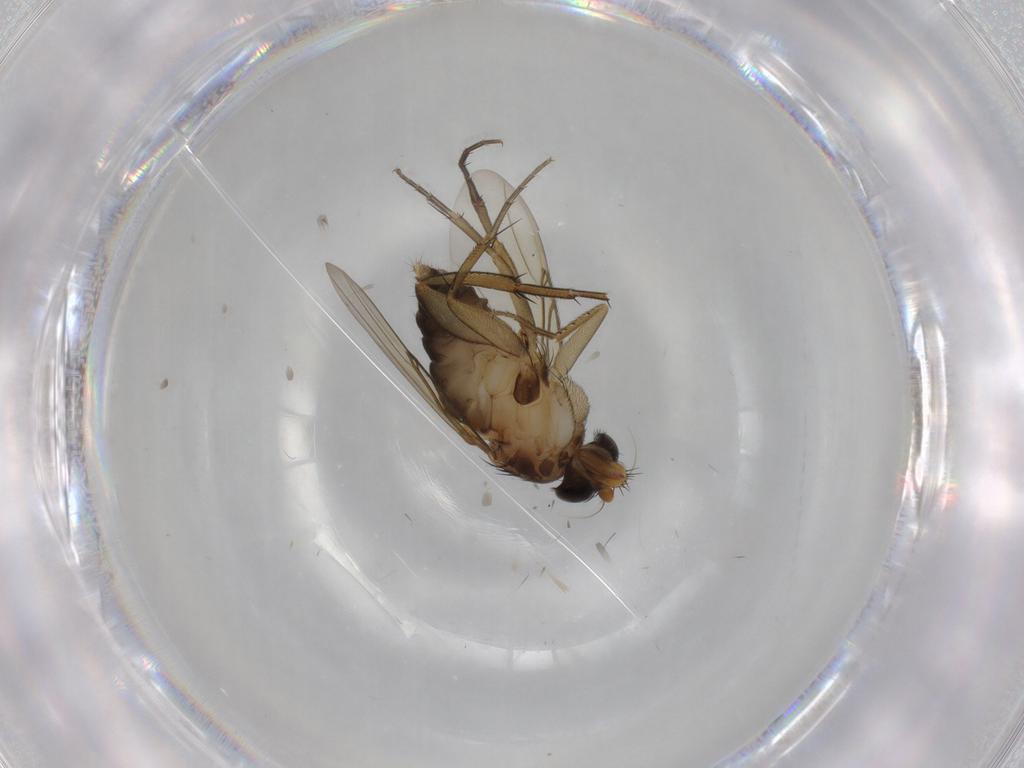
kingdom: Animalia
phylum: Arthropoda
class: Insecta
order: Diptera
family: Phoridae
